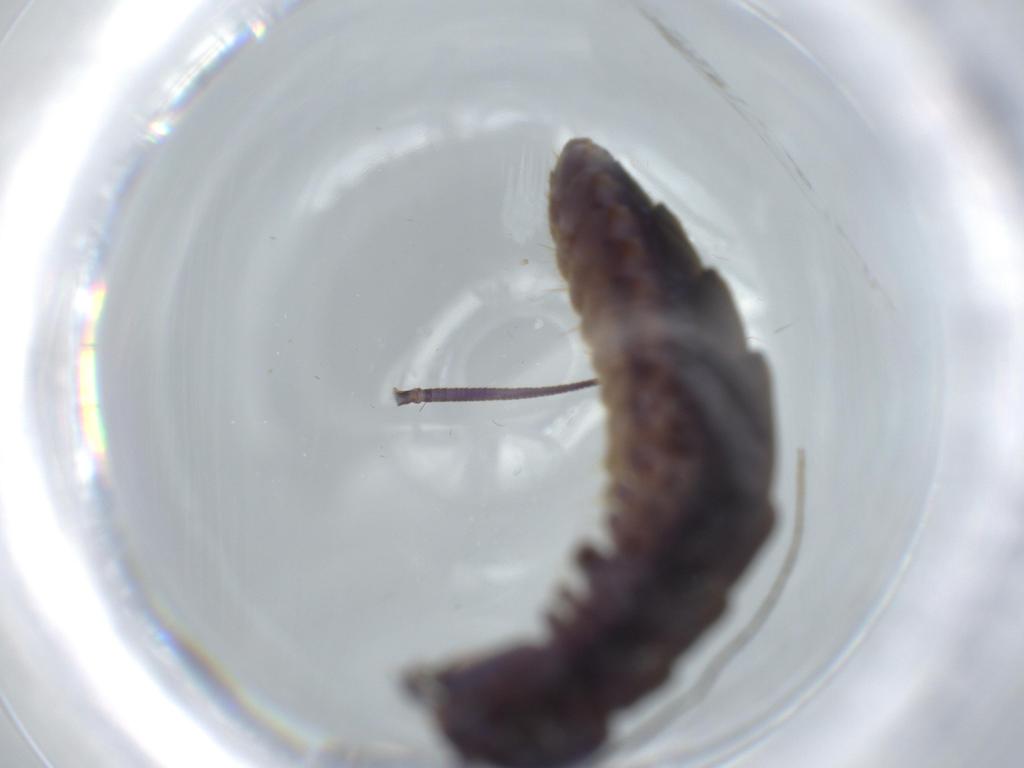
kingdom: Animalia
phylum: Arthropoda
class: Chilopoda
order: Scutigeromorpha
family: Scutigeridae
